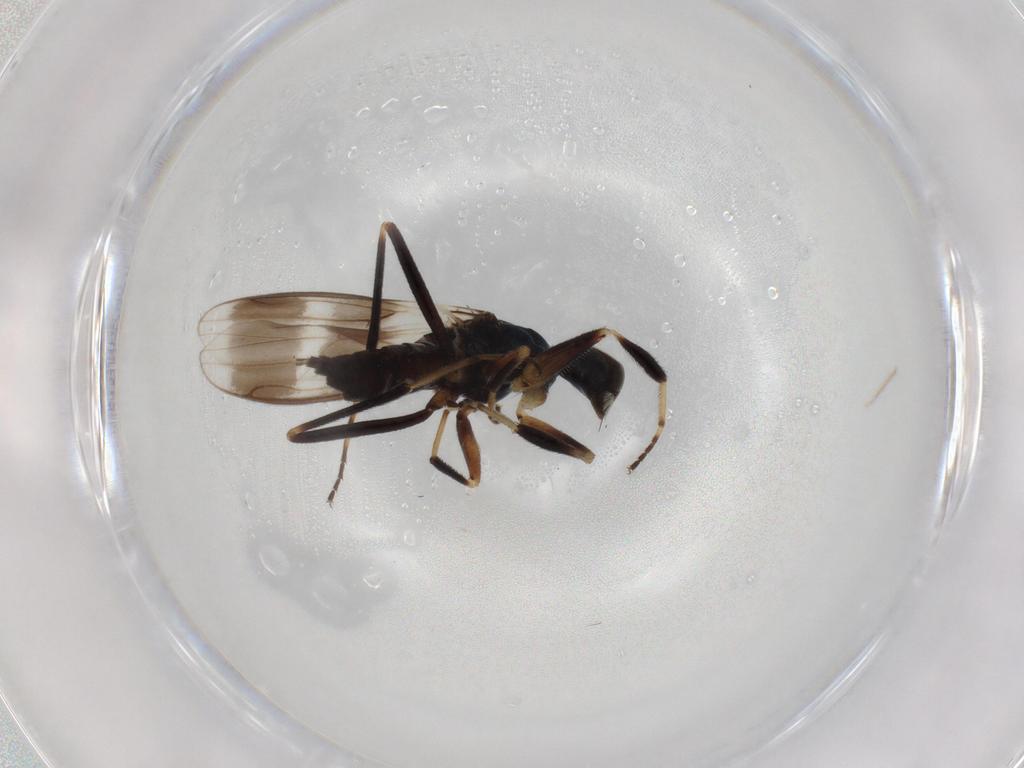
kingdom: Animalia
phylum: Arthropoda
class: Insecta
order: Diptera
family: Hybotidae
